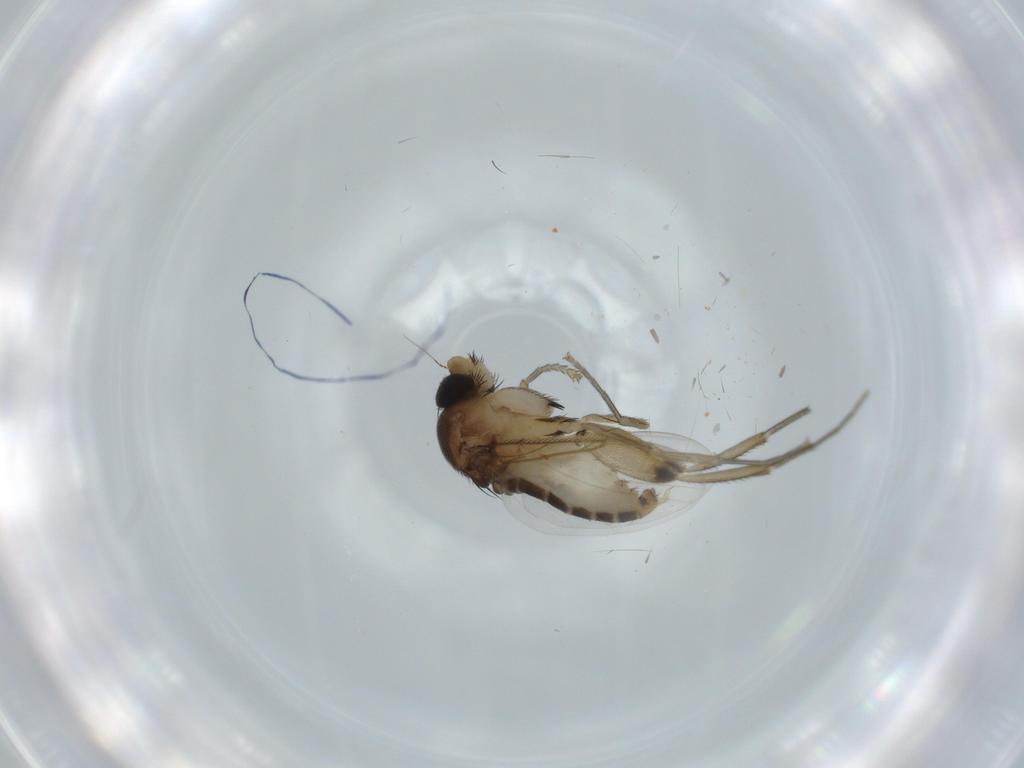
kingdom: Animalia
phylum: Arthropoda
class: Insecta
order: Diptera
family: Phoridae
